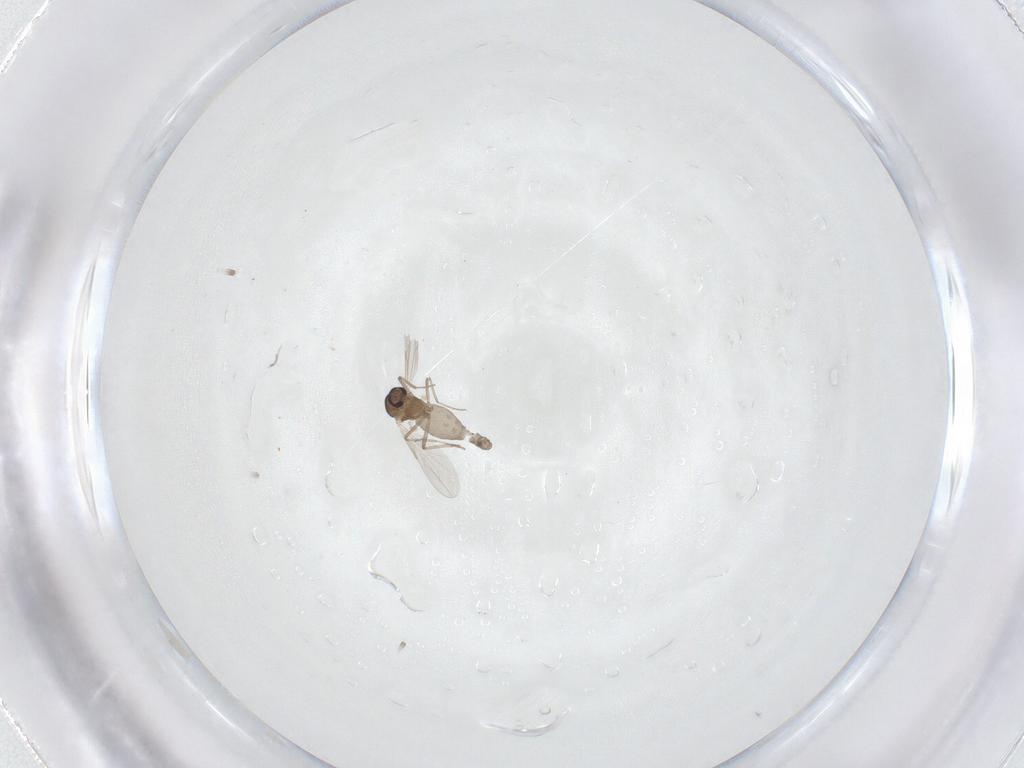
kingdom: Animalia
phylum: Arthropoda
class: Insecta
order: Diptera
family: Ceratopogonidae
